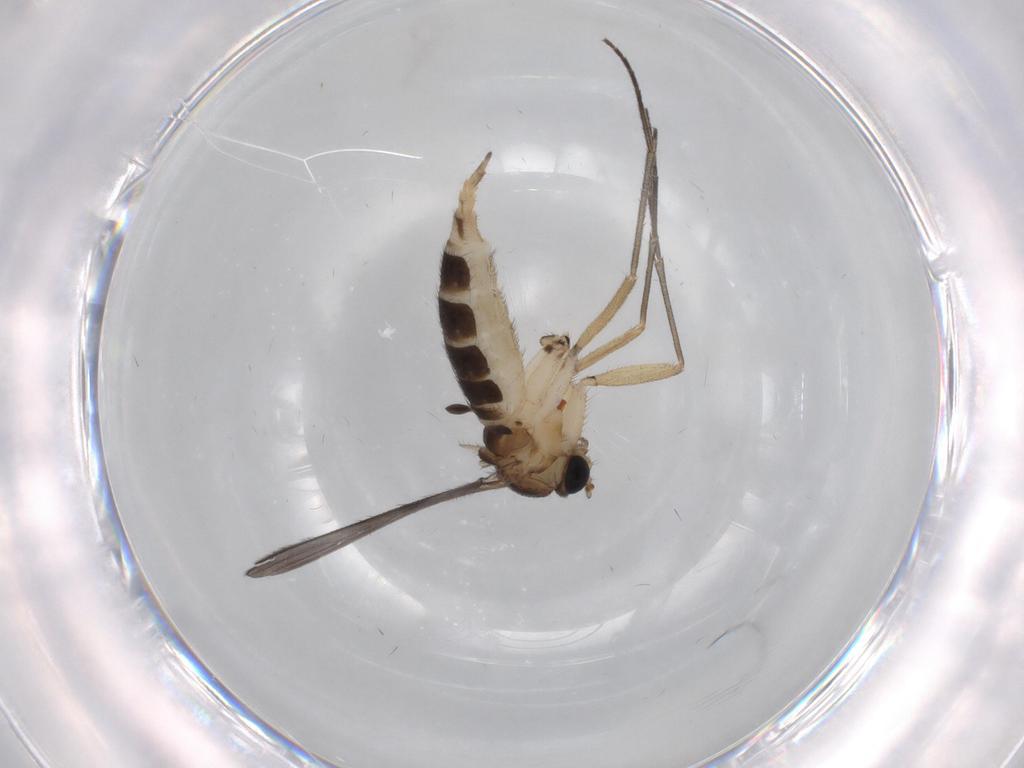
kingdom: Animalia
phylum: Arthropoda
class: Insecta
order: Diptera
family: Sciaridae
